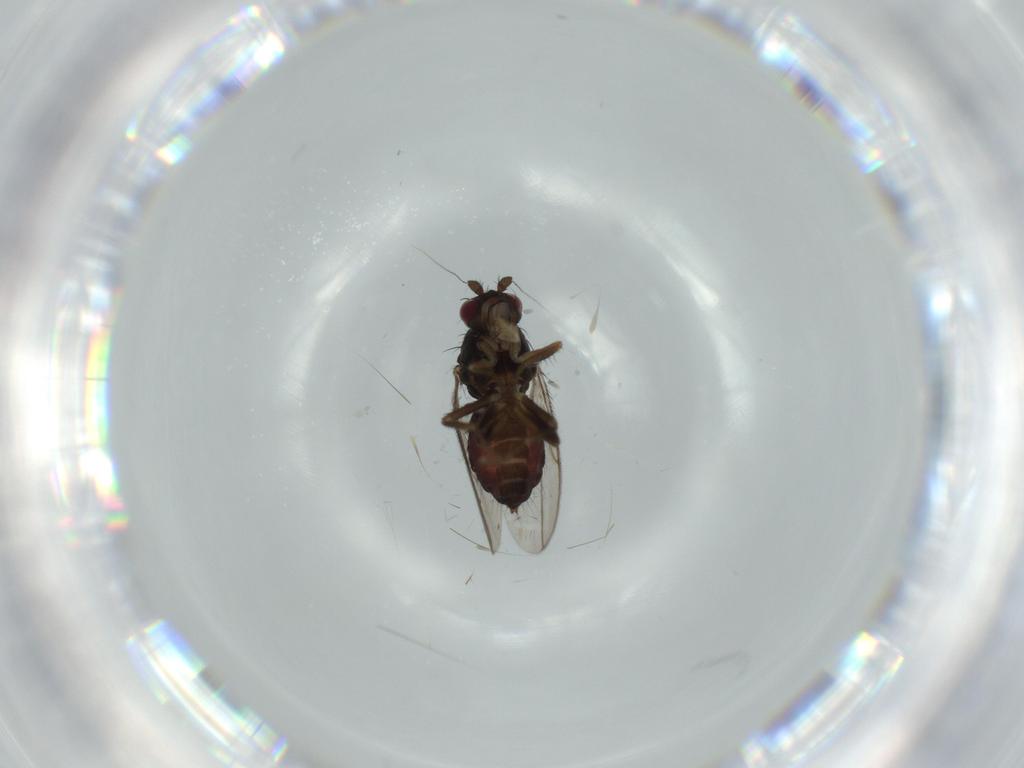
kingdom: Animalia
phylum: Arthropoda
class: Insecta
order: Diptera
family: Sphaeroceridae
